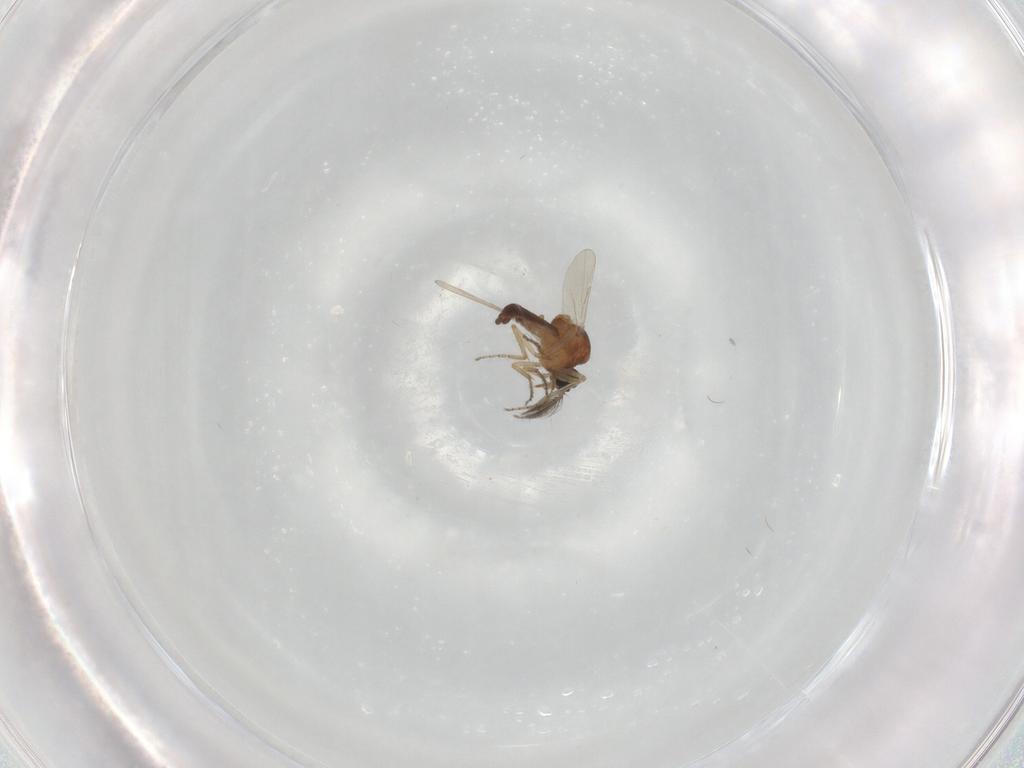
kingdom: Animalia
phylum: Arthropoda
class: Insecta
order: Diptera
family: Ceratopogonidae
